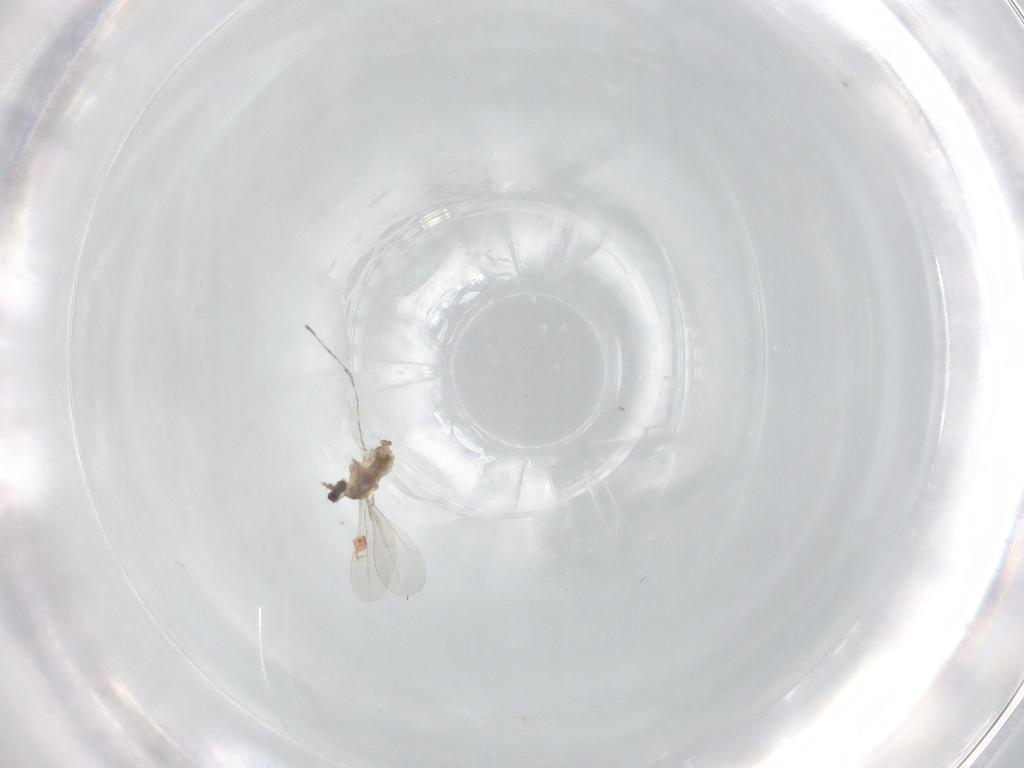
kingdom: Animalia
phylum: Arthropoda
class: Insecta
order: Diptera
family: Cecidomyiidae
